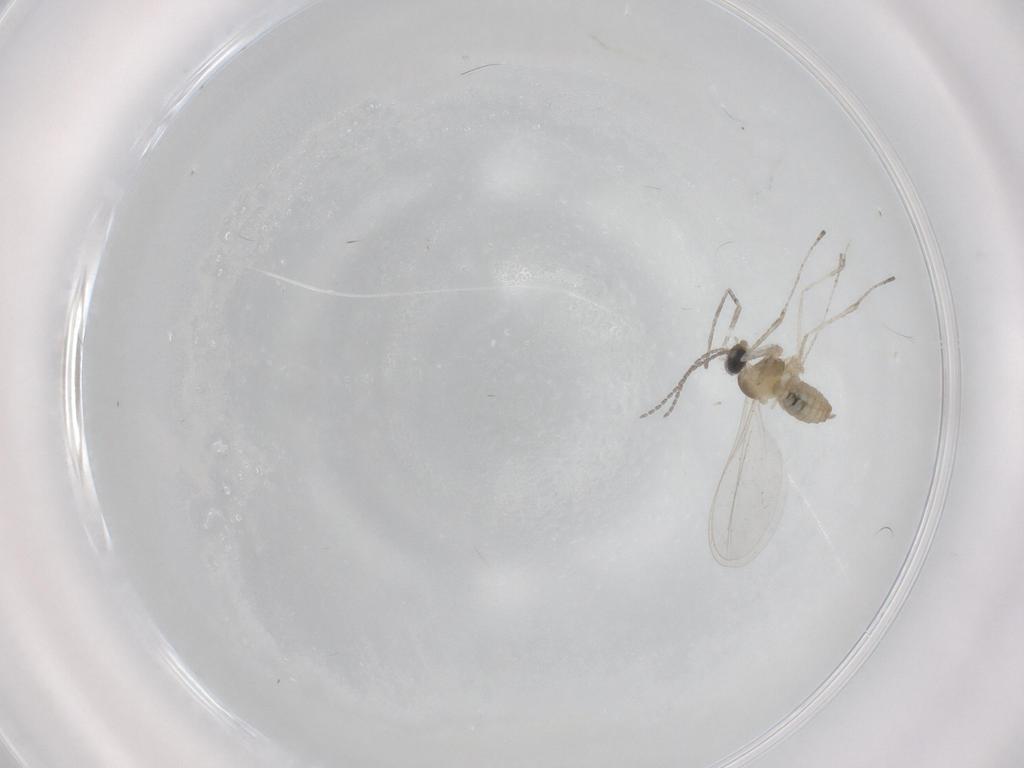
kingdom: Animalia
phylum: Arthropoda
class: Insecta
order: Diptera
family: Cecidomyiidae
